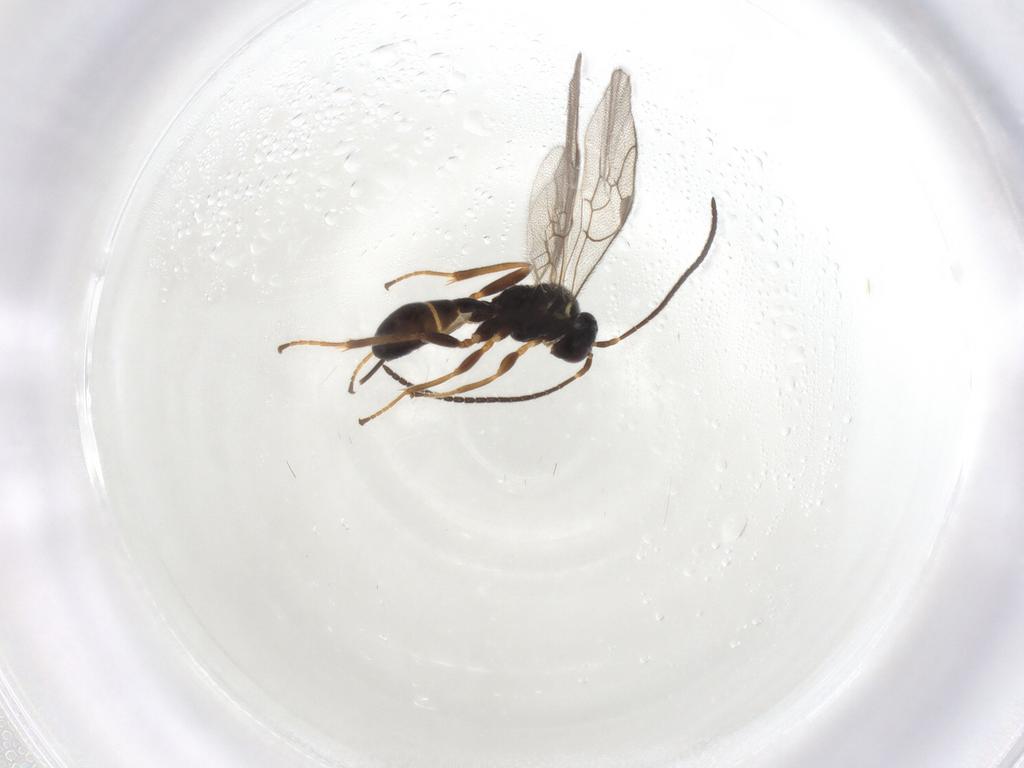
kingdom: Animalia
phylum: Arthropoda
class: Insecta
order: Hymenoptera
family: Ichneumonidae
